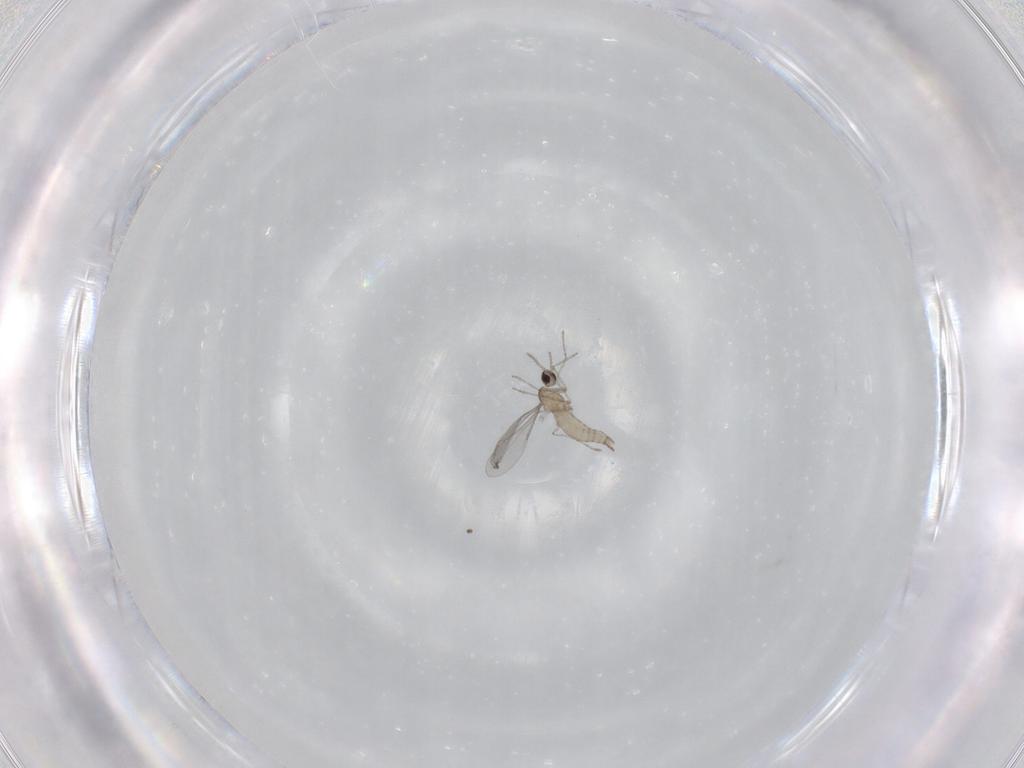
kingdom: Animalia
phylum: Arthropoda
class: Insecta
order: Diptera
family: Cecidomyiidae
